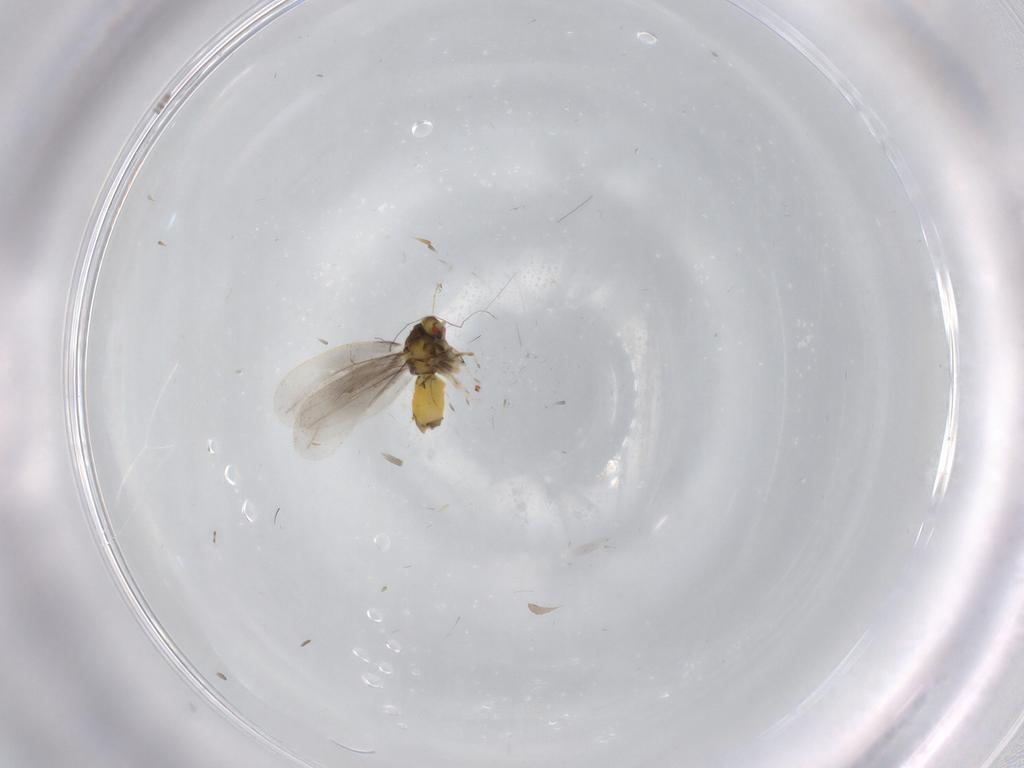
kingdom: Animalia
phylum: Arthropoda
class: Insecta
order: Hemiptera
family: Aleyrodidae
